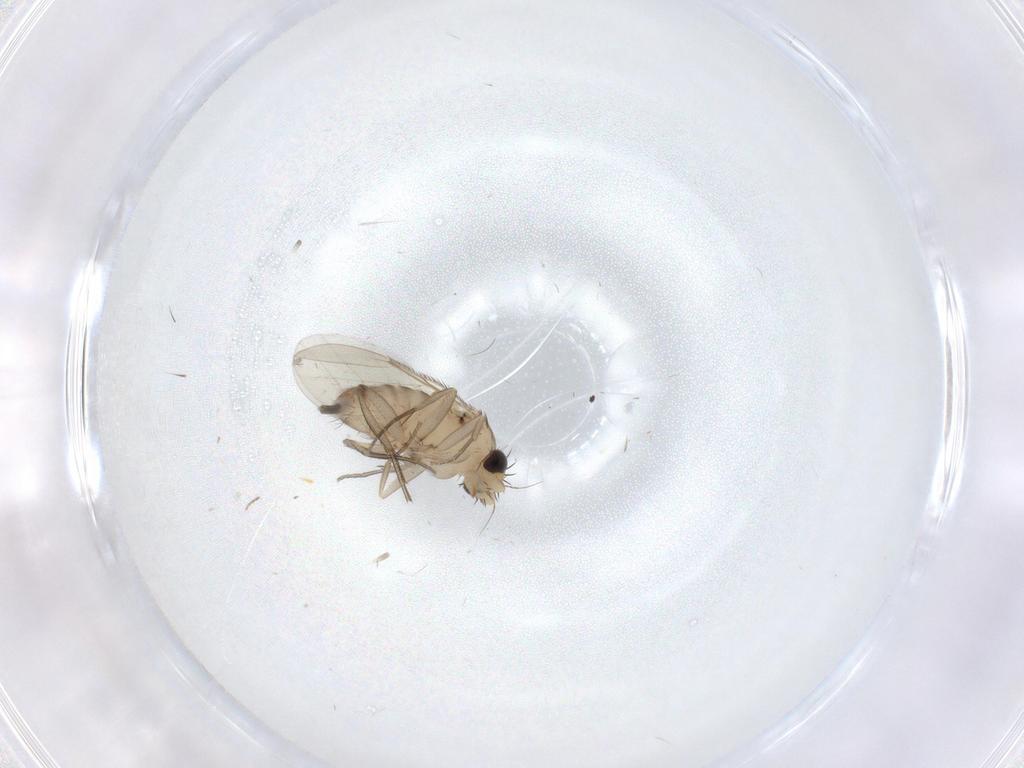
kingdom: Animalia
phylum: Arthropoda
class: Insecta
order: Diptera
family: Phoridae
